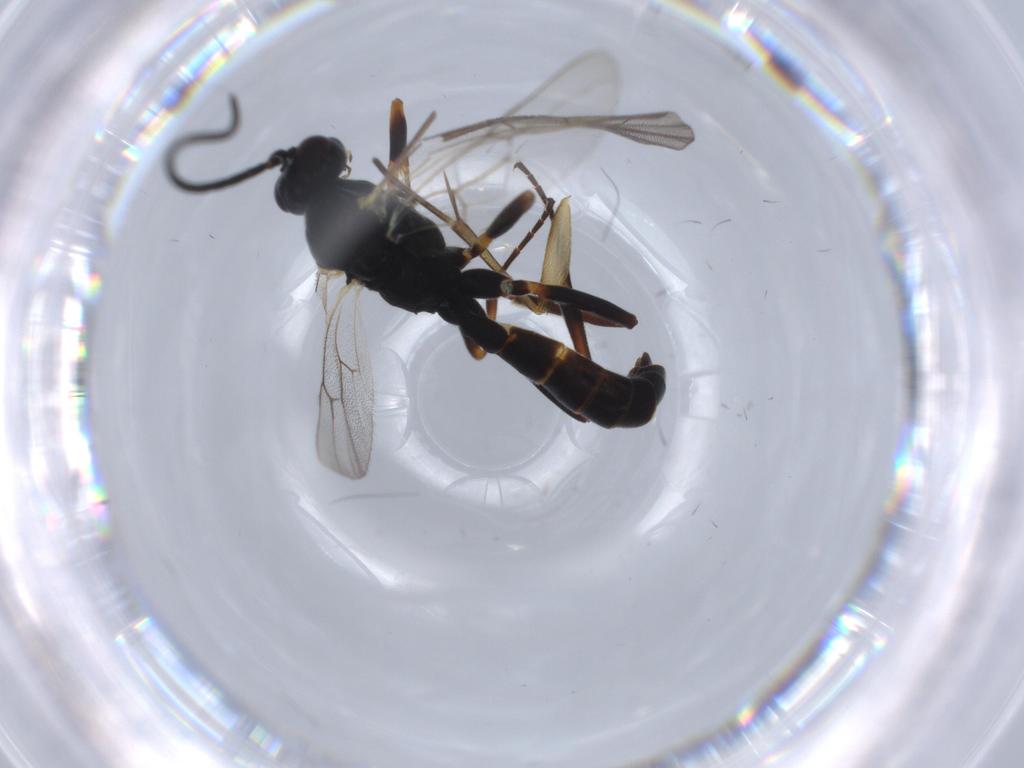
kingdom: Animalia
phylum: Arthropoda
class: Insecta
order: Hymenoptera
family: Ichneumonidae
